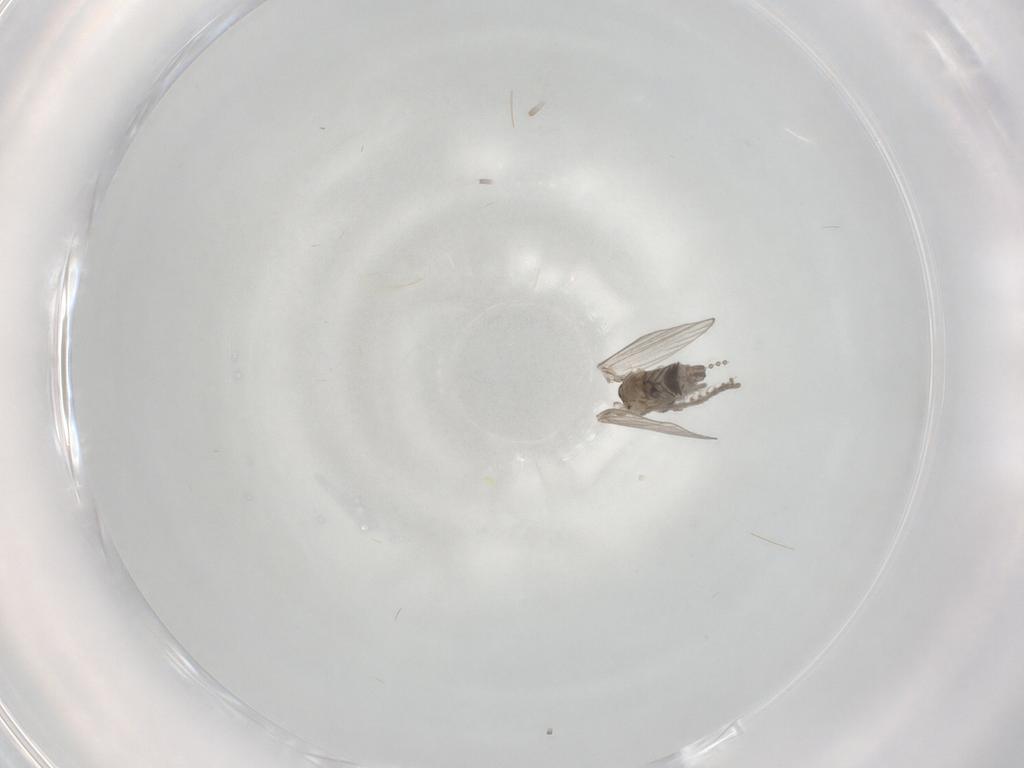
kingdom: Animalia
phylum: Arthropoda
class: Insecta
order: Diptera
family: Psychodidae
